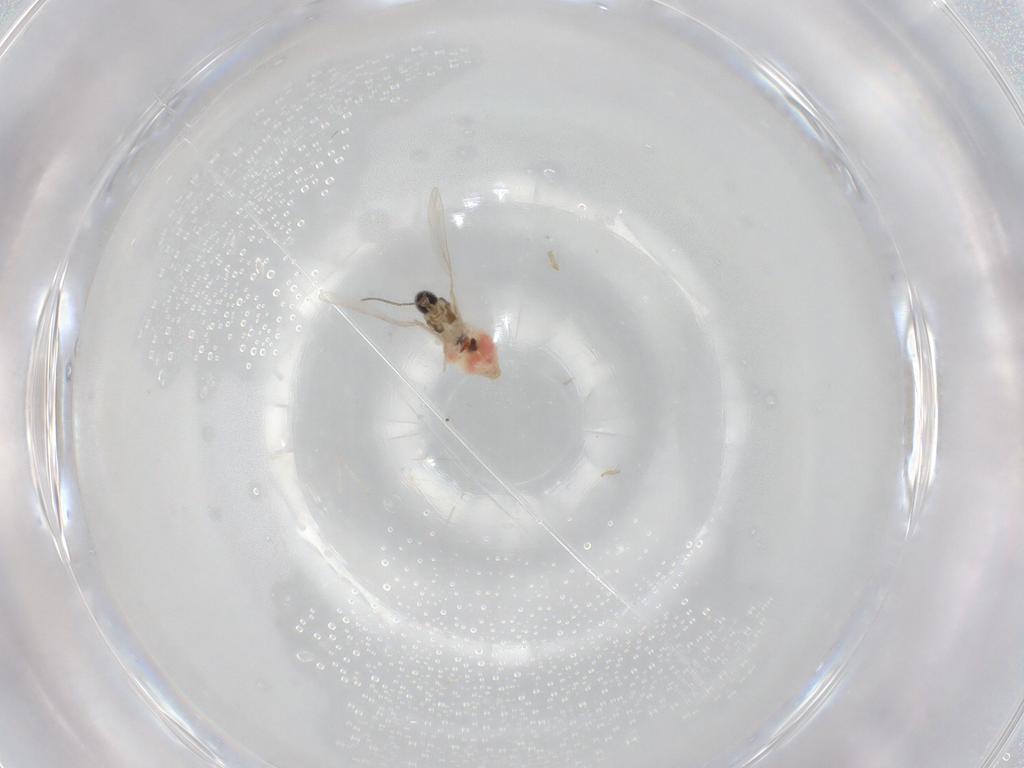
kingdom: Animalia
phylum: Arthropoda
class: Insecta
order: Diptera
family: Cecidomyiidae
